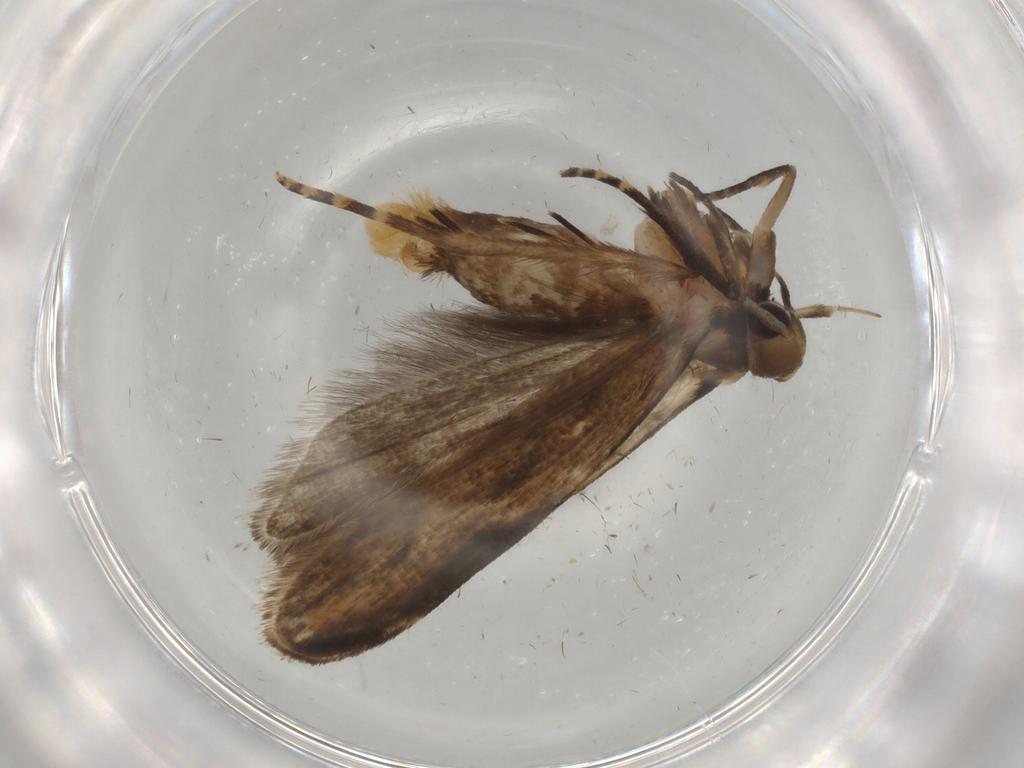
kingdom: Animalia
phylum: Arthropoda
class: Insecta
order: Lepidoptera
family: Gelechiidae
